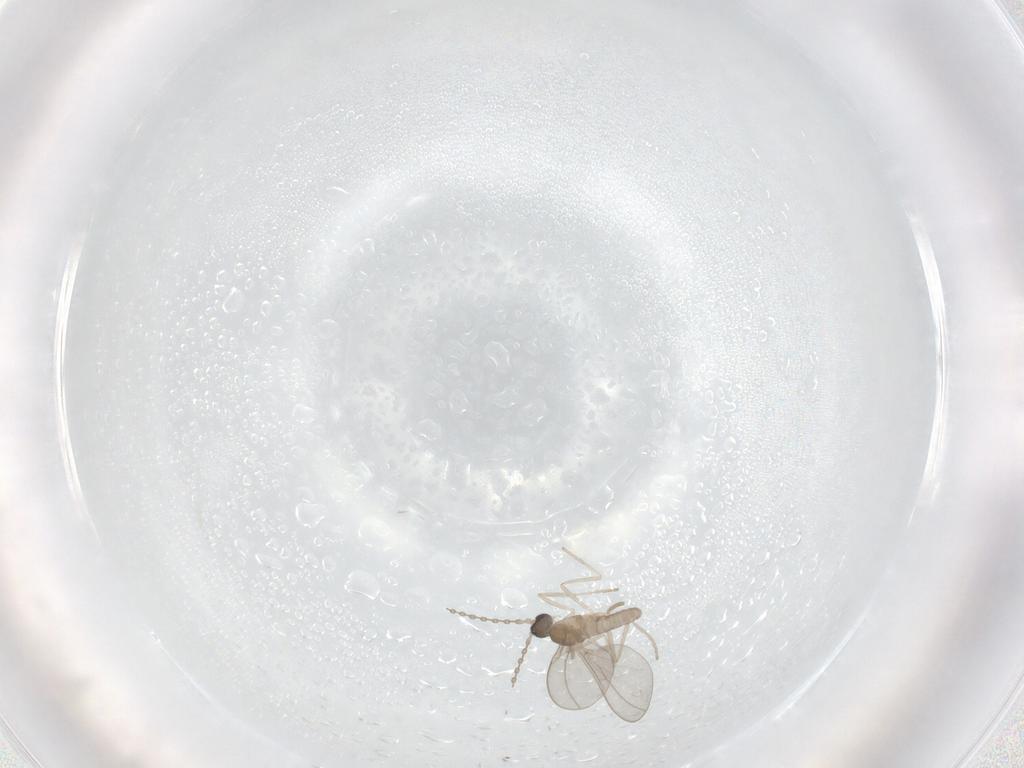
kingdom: Animalia
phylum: Arthropoda
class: Insecta
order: Diptera
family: Cecidomyiidae
